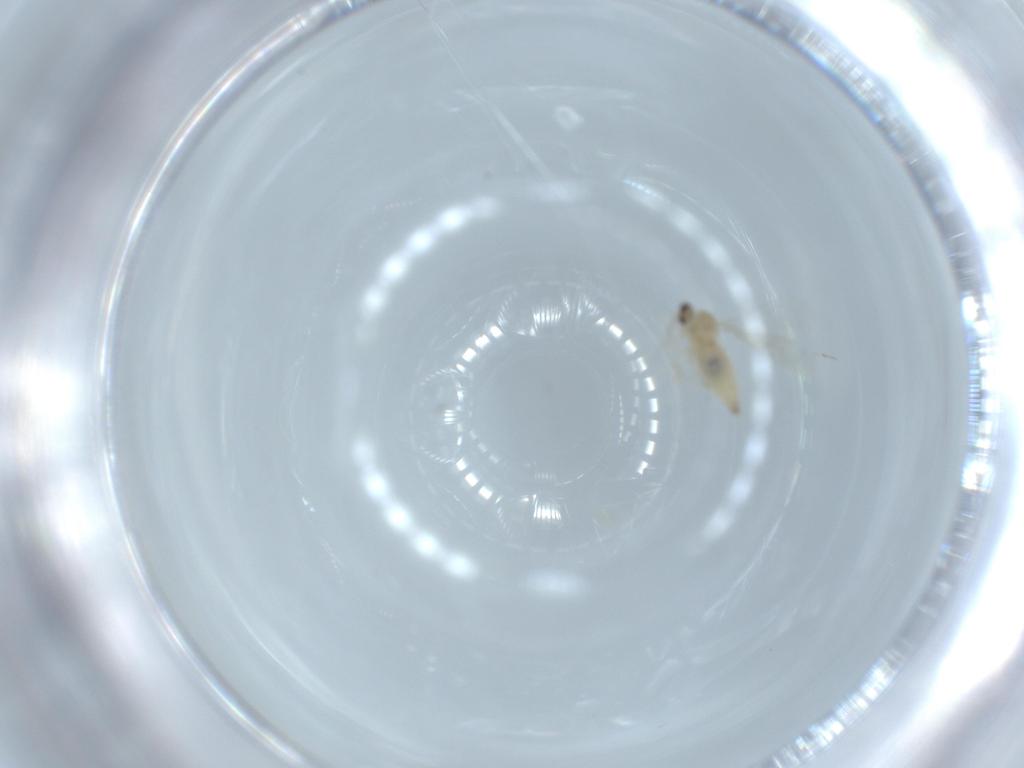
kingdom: Animalia
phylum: Arthropoda
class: Insecta
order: Diptera
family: Cecidomyiidae
